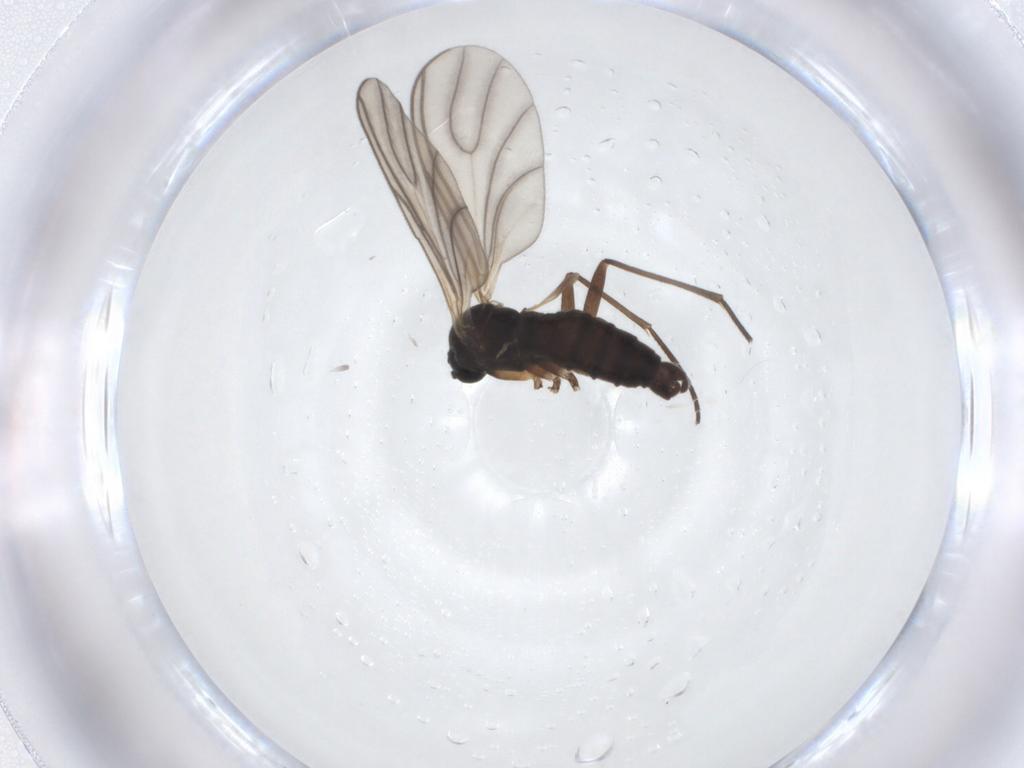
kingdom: Animalia
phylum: Arthropoda
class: Insecta
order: Diptera
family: Sciaridae
